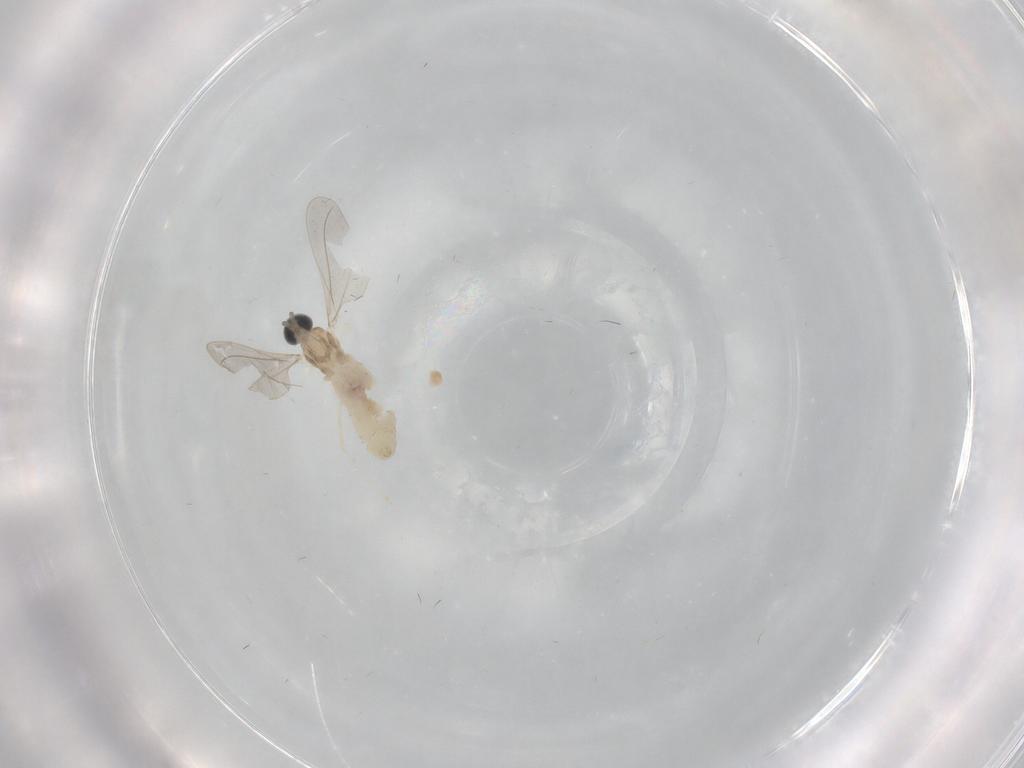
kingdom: Animalia
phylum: Arthropoda
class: Insecta
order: Diptera
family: Cecidomyiidae
